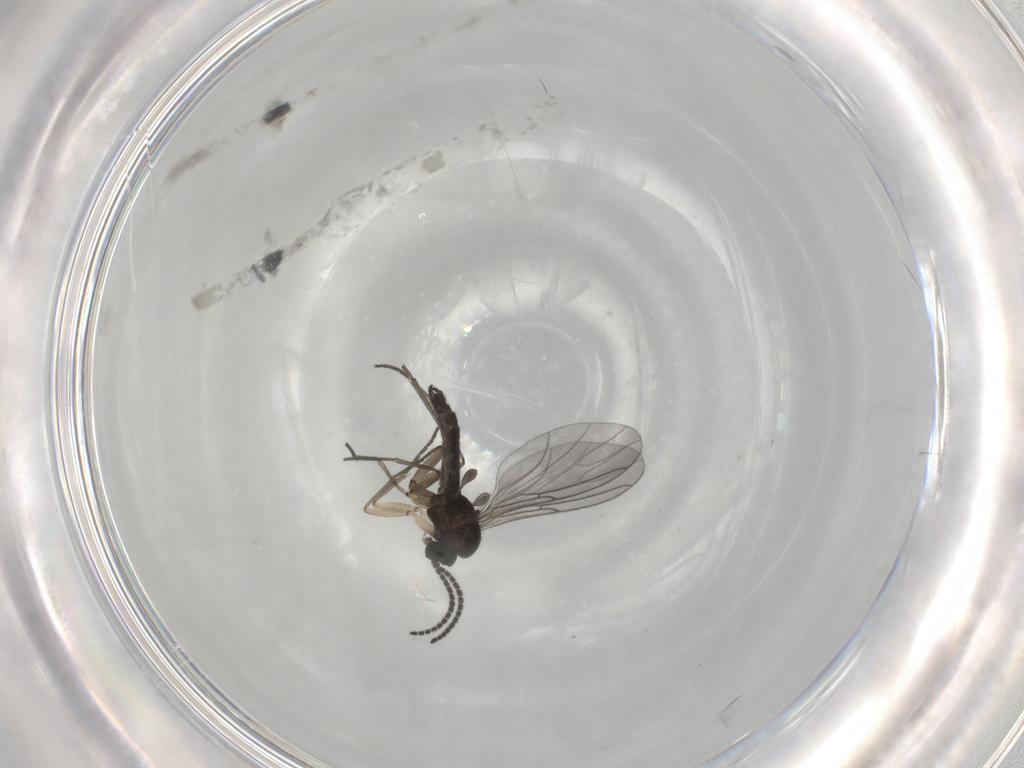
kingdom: Animalia
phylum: Arthropoda
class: Insecta
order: Diptera
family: Sciaridae
